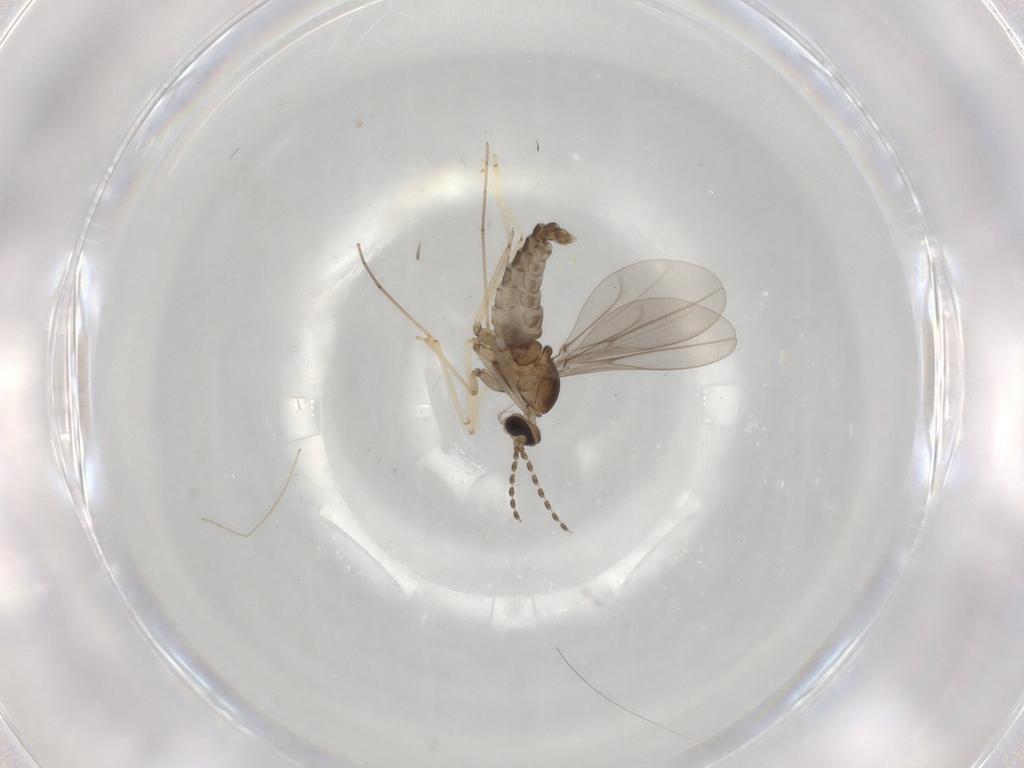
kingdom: Animalia
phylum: Arthropoda
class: Insecta
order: Diptera
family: Cecidomyiidae
